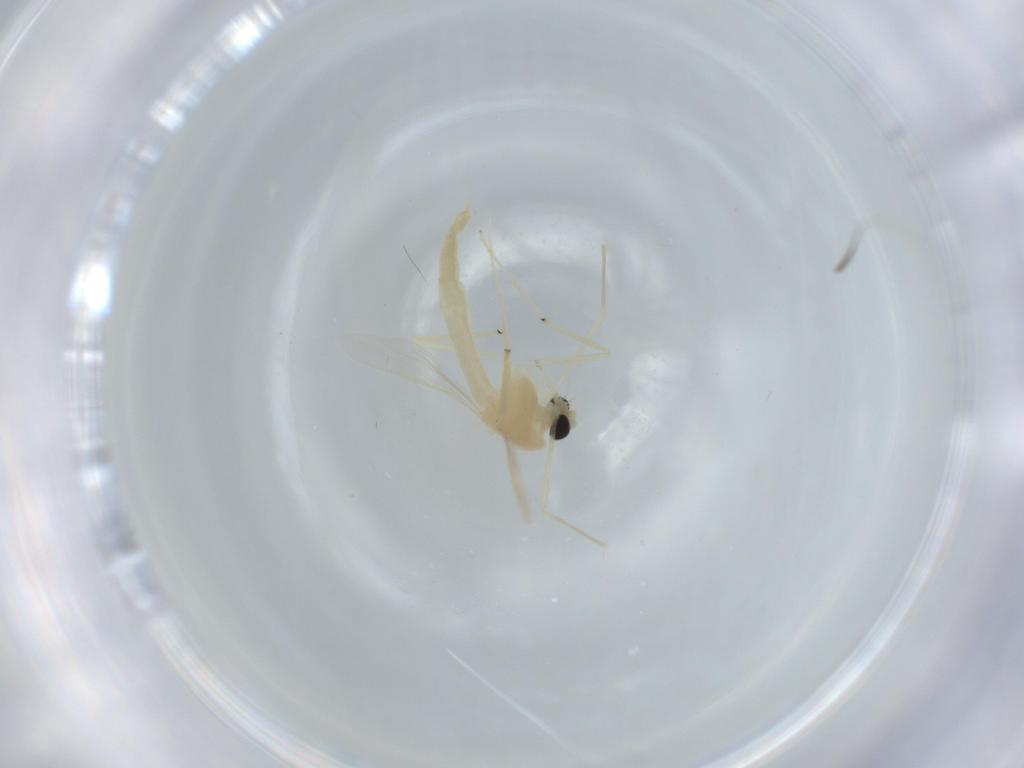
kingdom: Animalia
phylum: Arthropoda
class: Insecta
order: Diptera
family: Chironomidae
